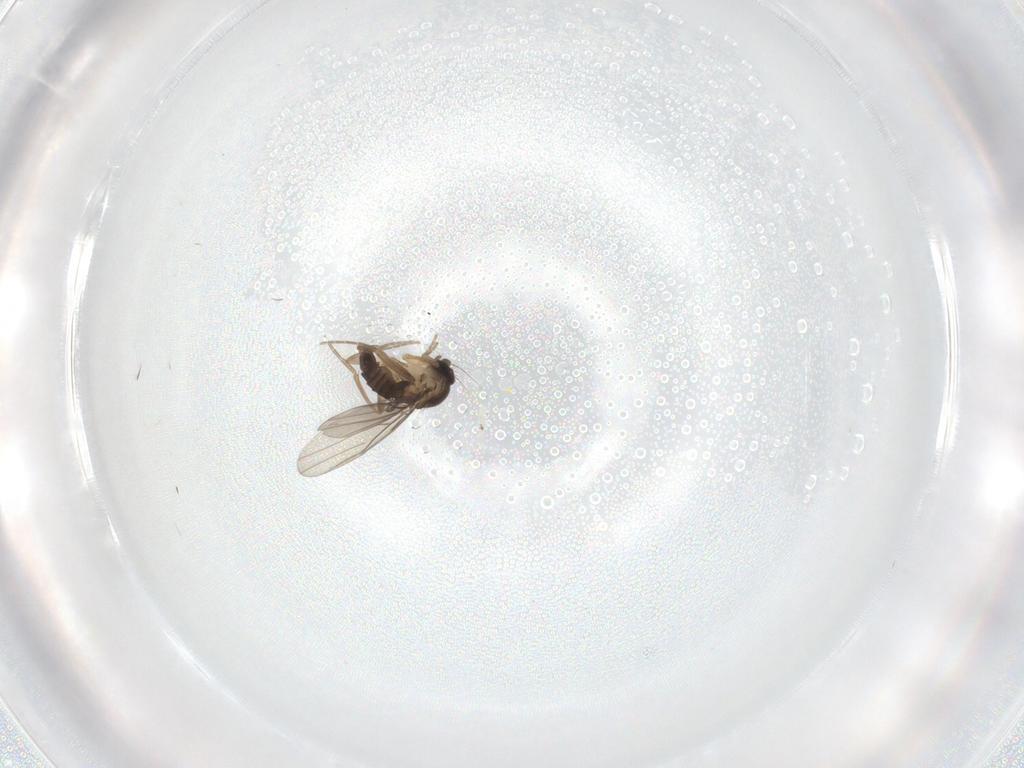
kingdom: Animalia
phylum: Arthropoda
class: Insecta
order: Diptera
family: Phoridae
